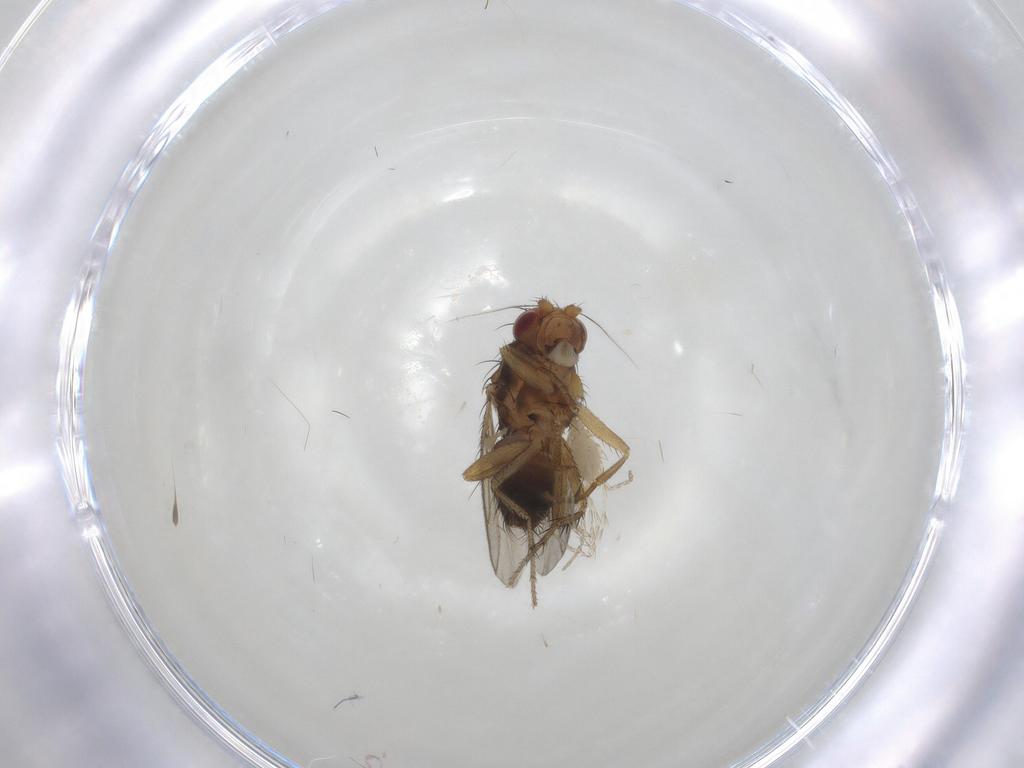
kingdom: Animalia
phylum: Arthropoda
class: Insecta
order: Diptera
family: Sphaeroceridae
